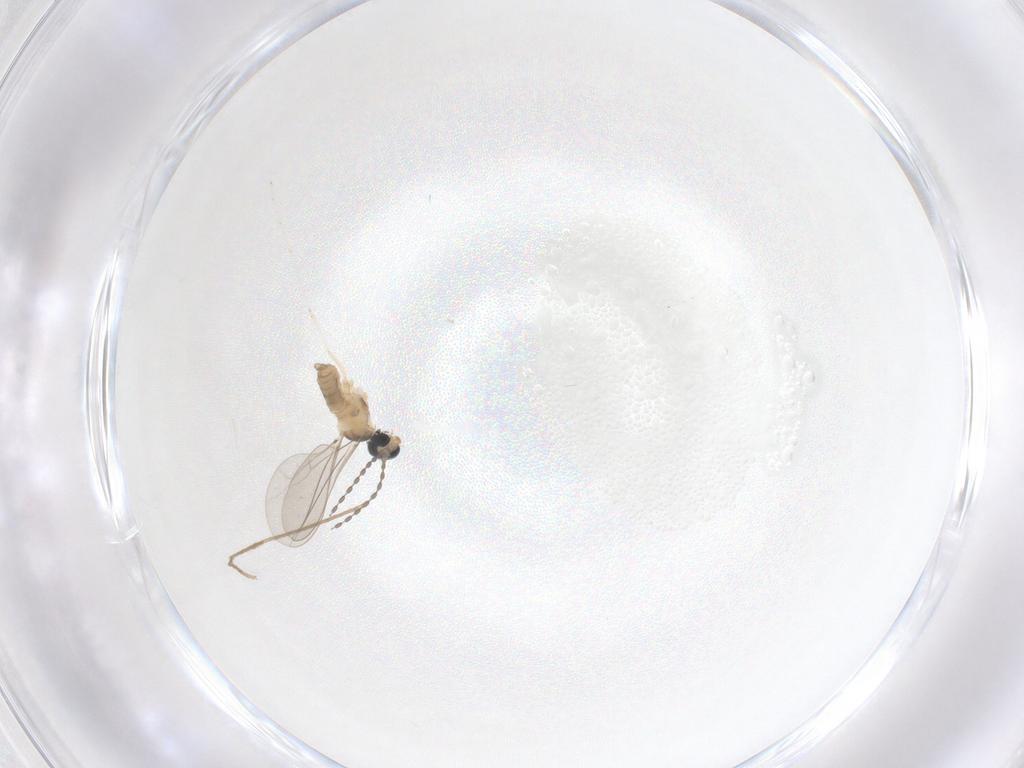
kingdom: Animalia
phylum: Arthropoda
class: Insecta
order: Diptera
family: Cecidomyiidae
